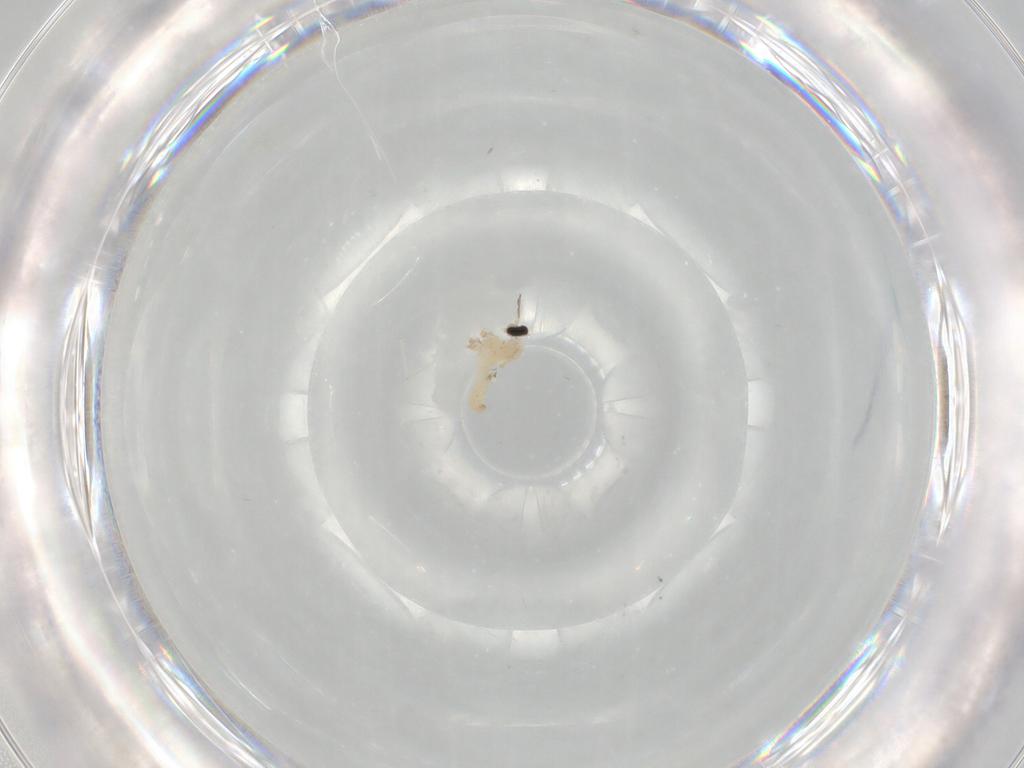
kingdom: Animalia
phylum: Arthropoda
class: Insecta
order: Diptera
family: Cecidomyiidae
